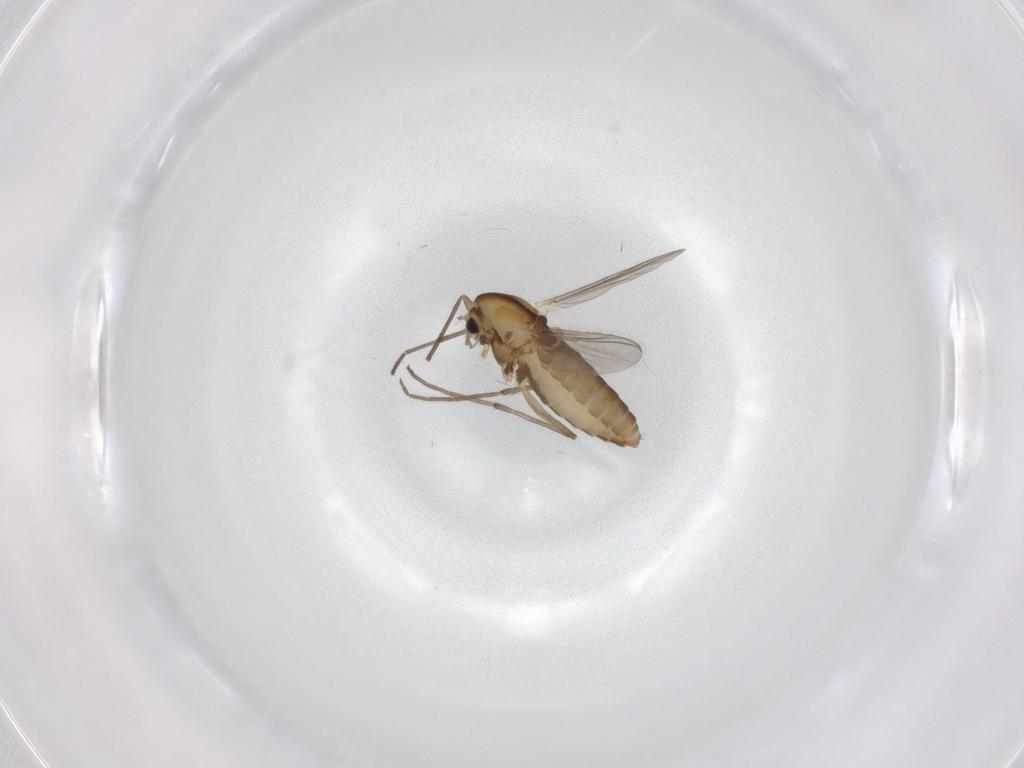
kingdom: Animalia
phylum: Arthropoda
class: Insecta
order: Diptera
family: Chironomidae
